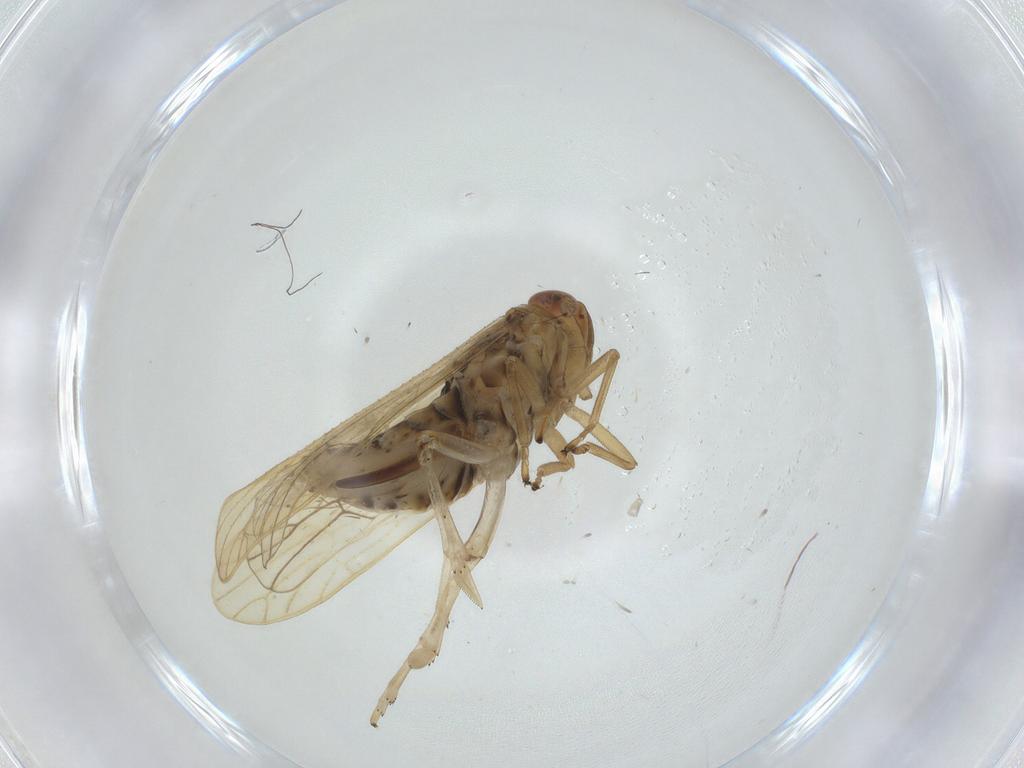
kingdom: Animalia
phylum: Arthropoda
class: Insecta
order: Hemiptera
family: Delphacidae
